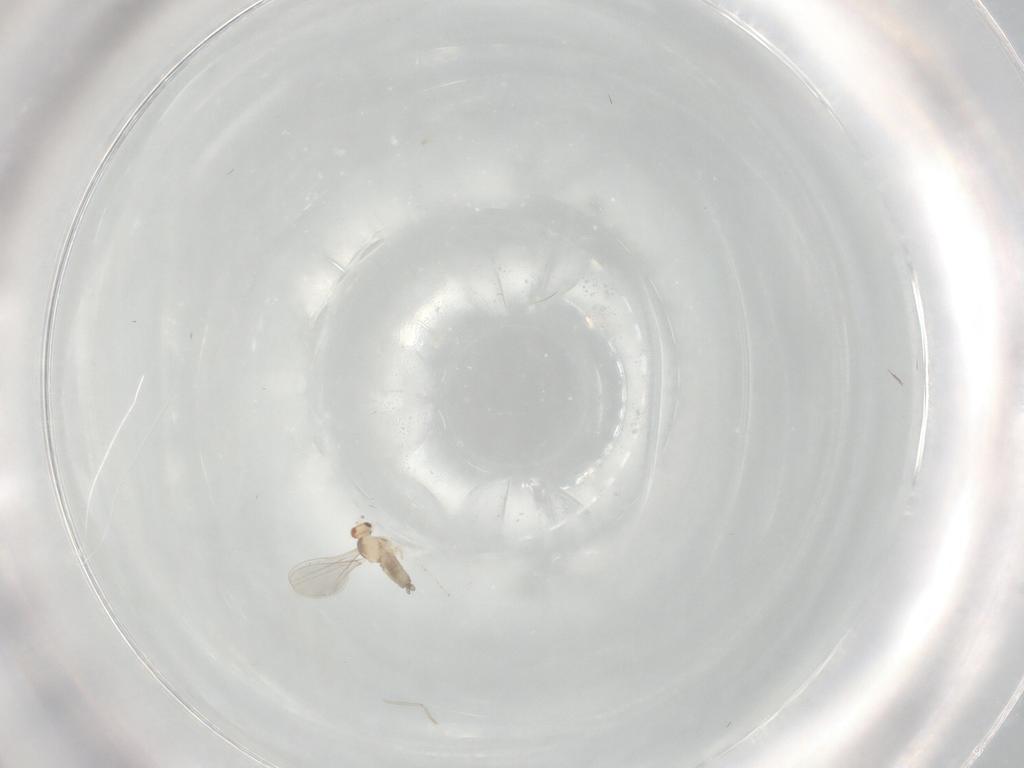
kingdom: Animalia
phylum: Arthropoda
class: Insecta
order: Diptera
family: Cecidomyiidae
